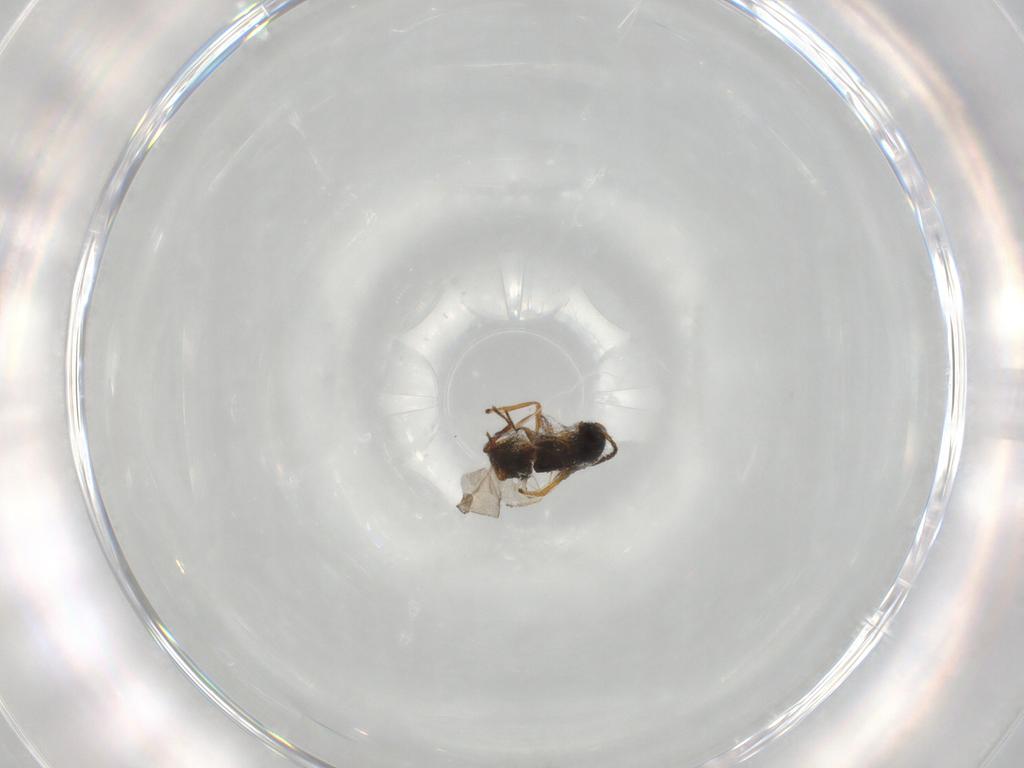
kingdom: Animalia
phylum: Arthropoda
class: Insecta
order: Hymenoptera
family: Encyrtidae
